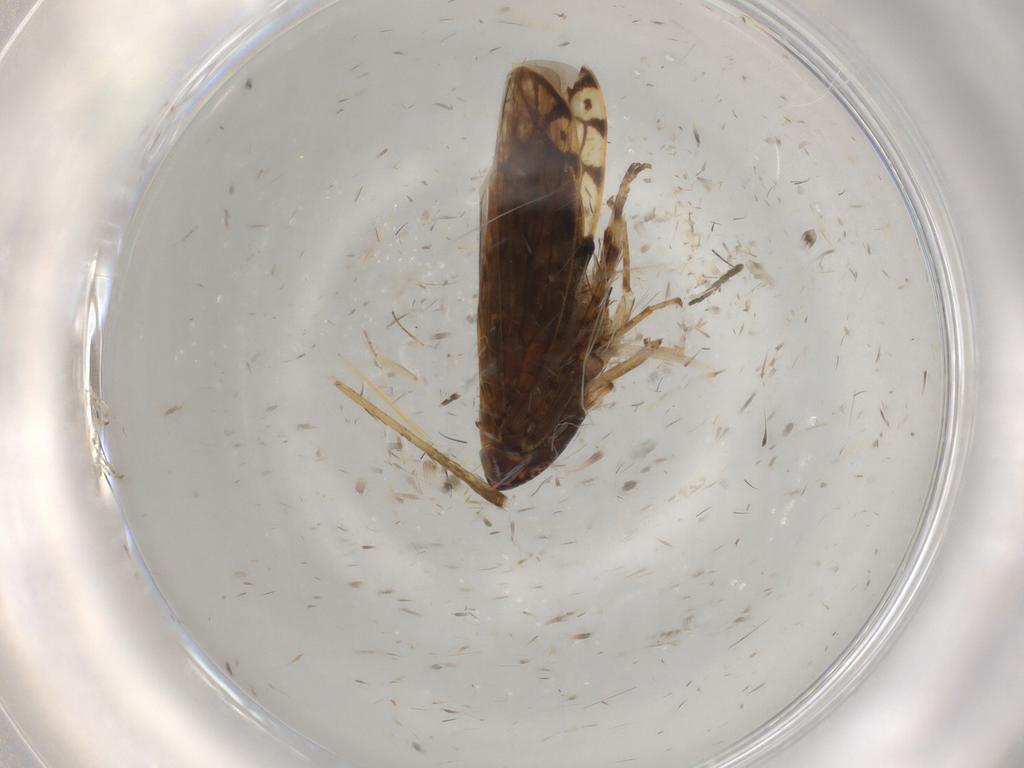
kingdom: Animalia
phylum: Arthropoda
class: Insecta
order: Hemiptera
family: Cicadellidae
